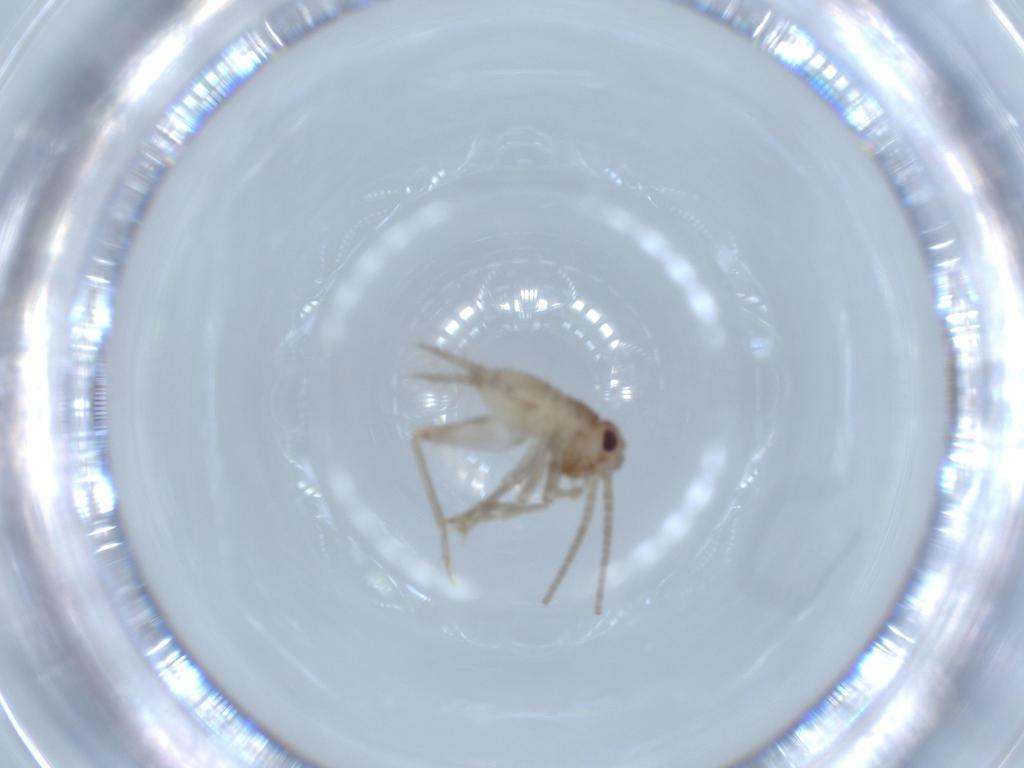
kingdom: Animalia
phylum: Arthropoda
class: Insecta
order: Orthoptera
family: Trigonidiidae
